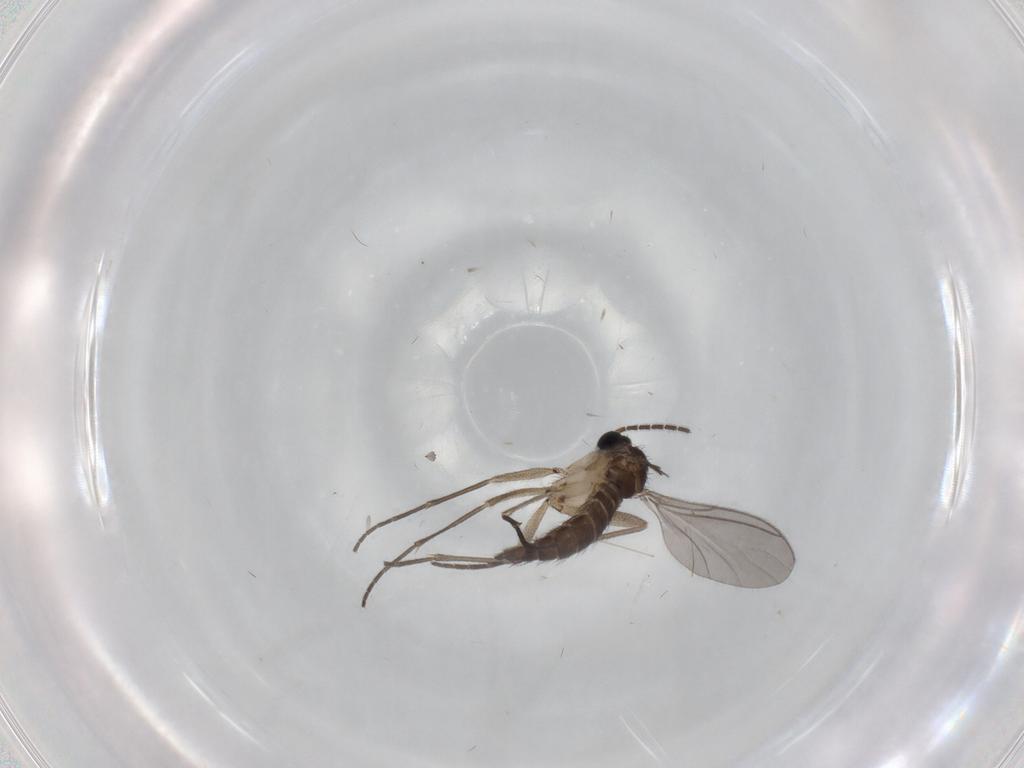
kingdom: Animalia
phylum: Arthropoda
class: Insecta
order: Diptera
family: Sciaridae
